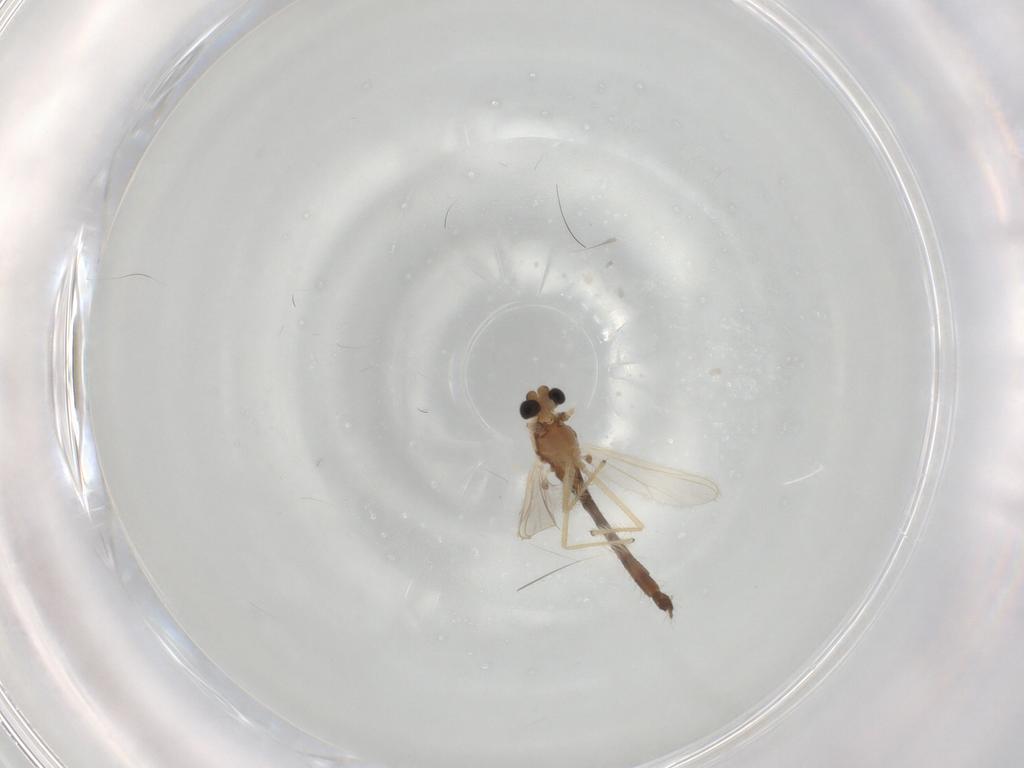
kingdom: Animalia
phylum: Arthropoda
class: Insecta
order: Diptera
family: Chironomidae
